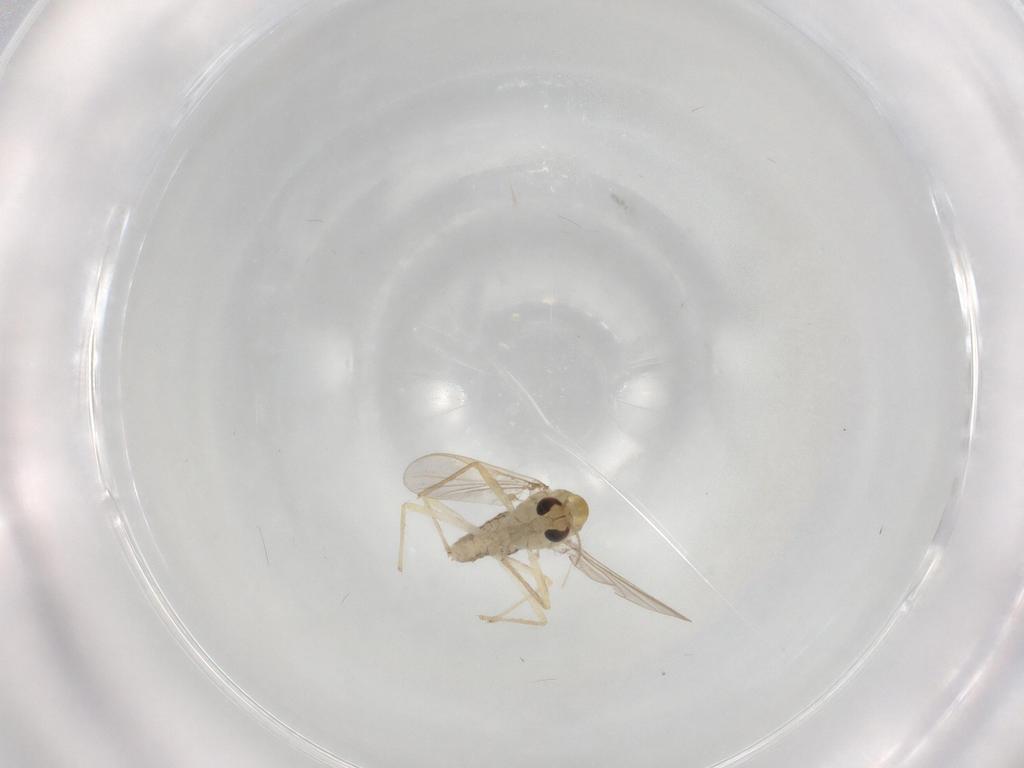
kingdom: Animalia
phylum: Arthropoda
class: Insecta
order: Diptera
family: Chironomidae
